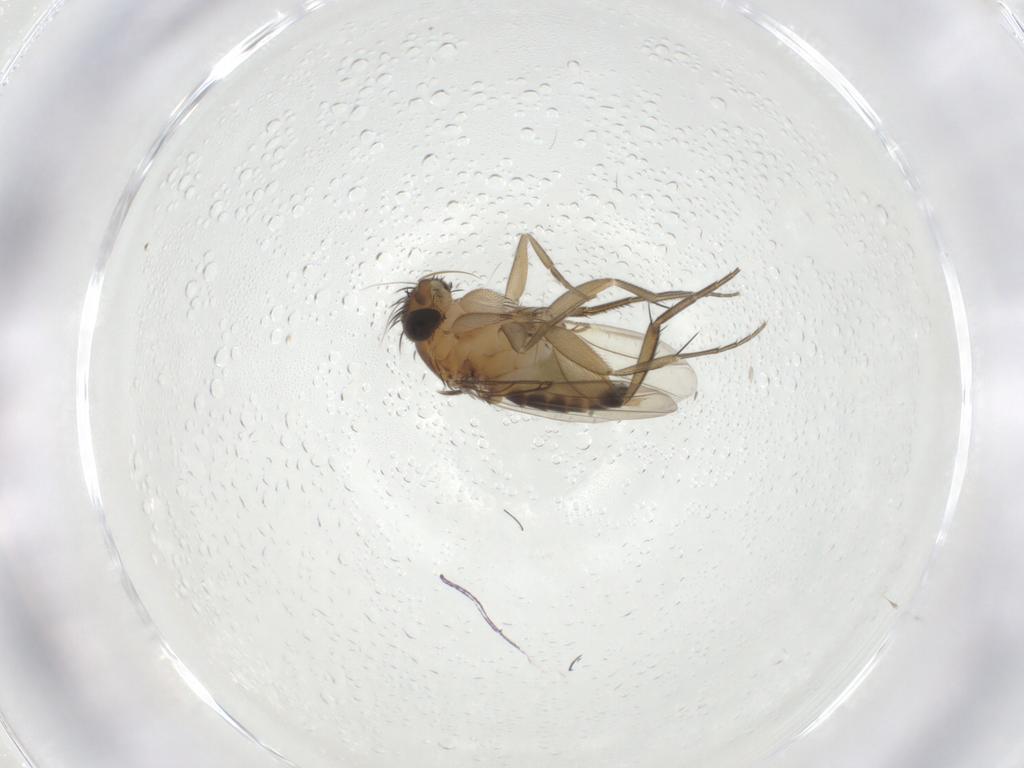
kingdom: Animalia
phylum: Arthropoda
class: Insecta
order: Diptera
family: Phoridae
